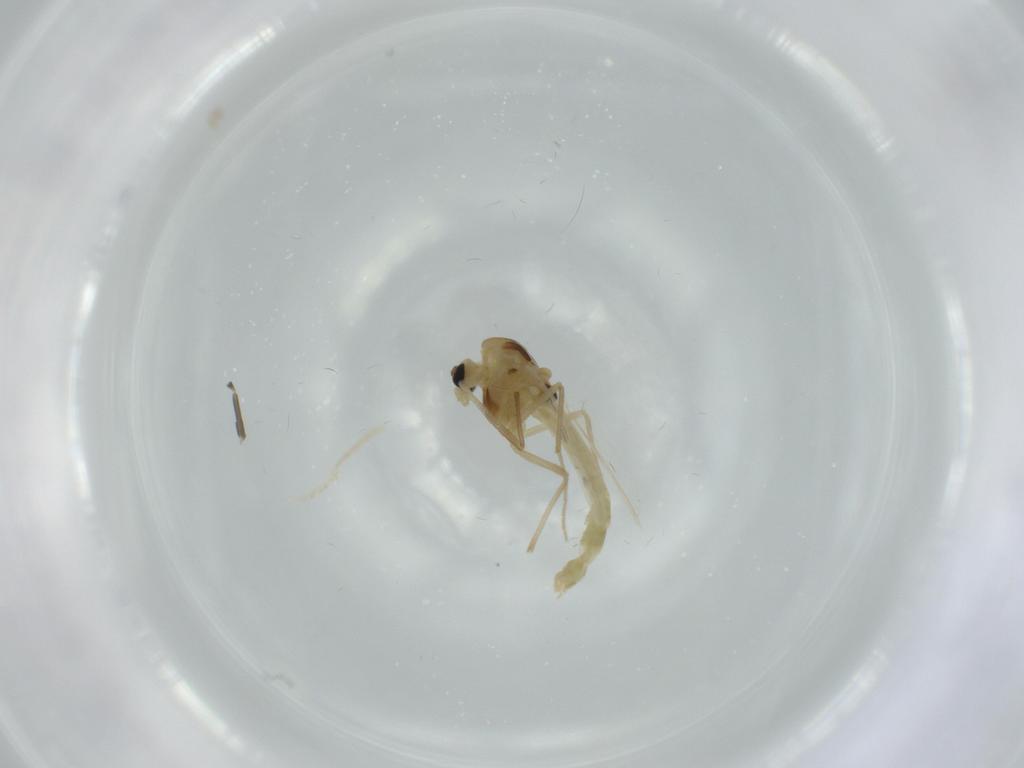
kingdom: Animalia
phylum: Arthropoda
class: Insecta
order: Diptera
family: Chironomidae
